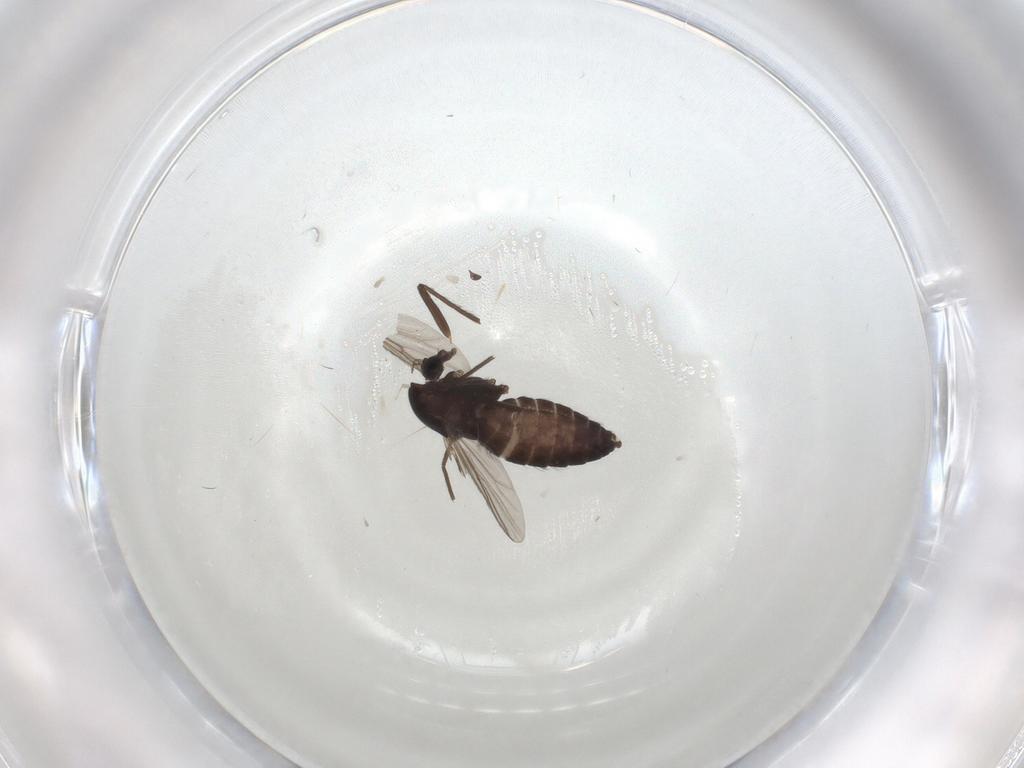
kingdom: Animalia
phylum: Arthropoda
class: Insecta
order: Diptera
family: Chironomidae
